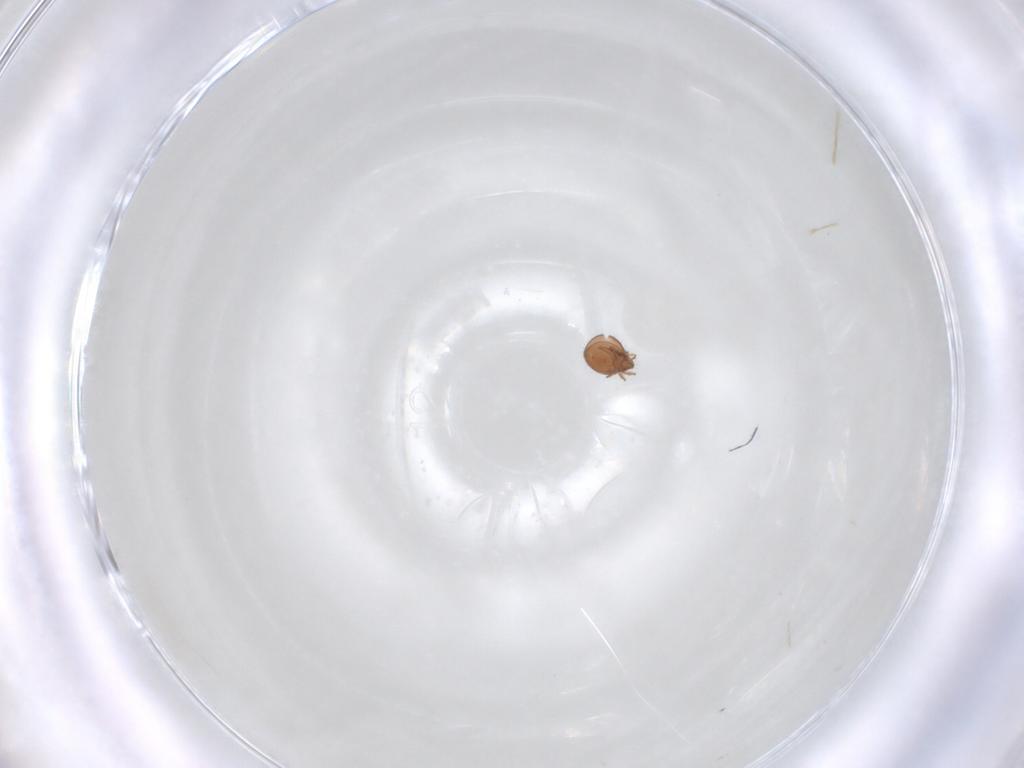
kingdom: Animalia
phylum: Arthropoda
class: Arachnida
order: Sarcoptiformes
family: Oribatulidae
